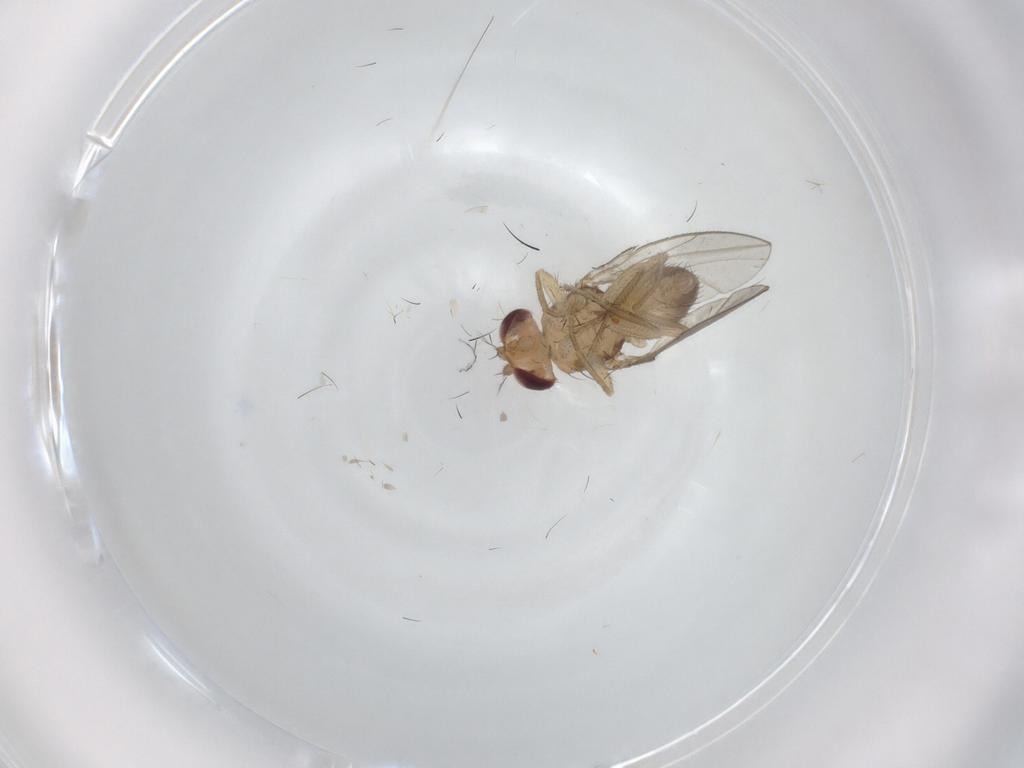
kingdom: Animalia
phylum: Arthropoda
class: Insecta
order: Diptera
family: Drosophilidae
